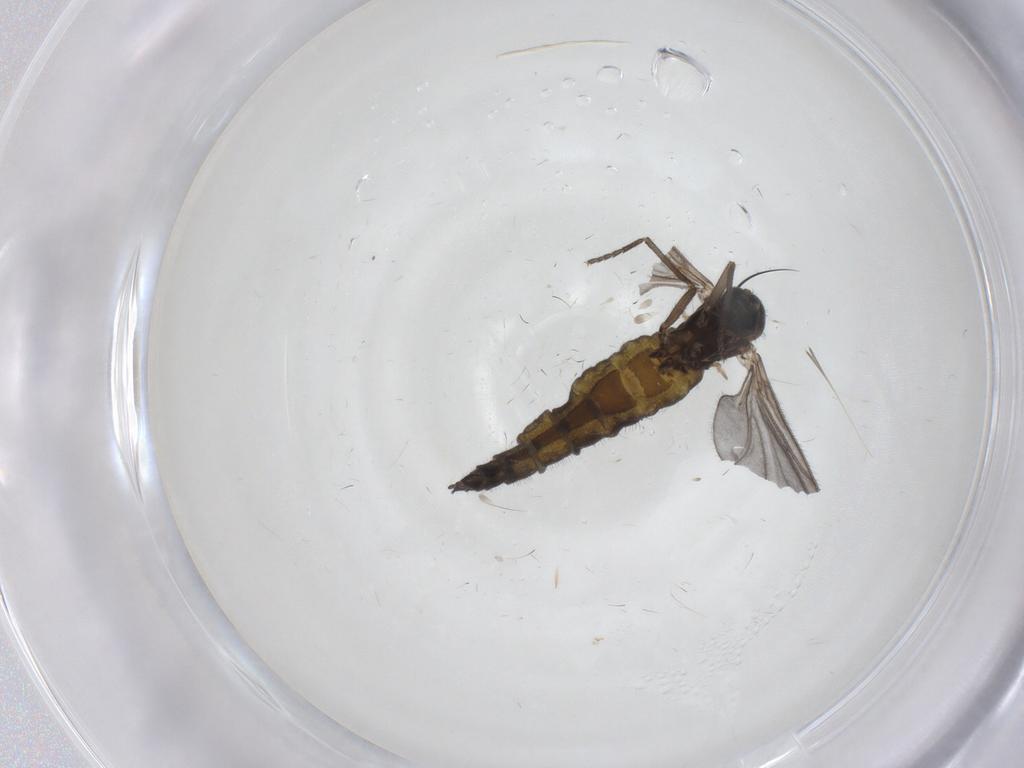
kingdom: Animalia
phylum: Arthropoda
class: Insecta
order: Diptera
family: Sciaridae
